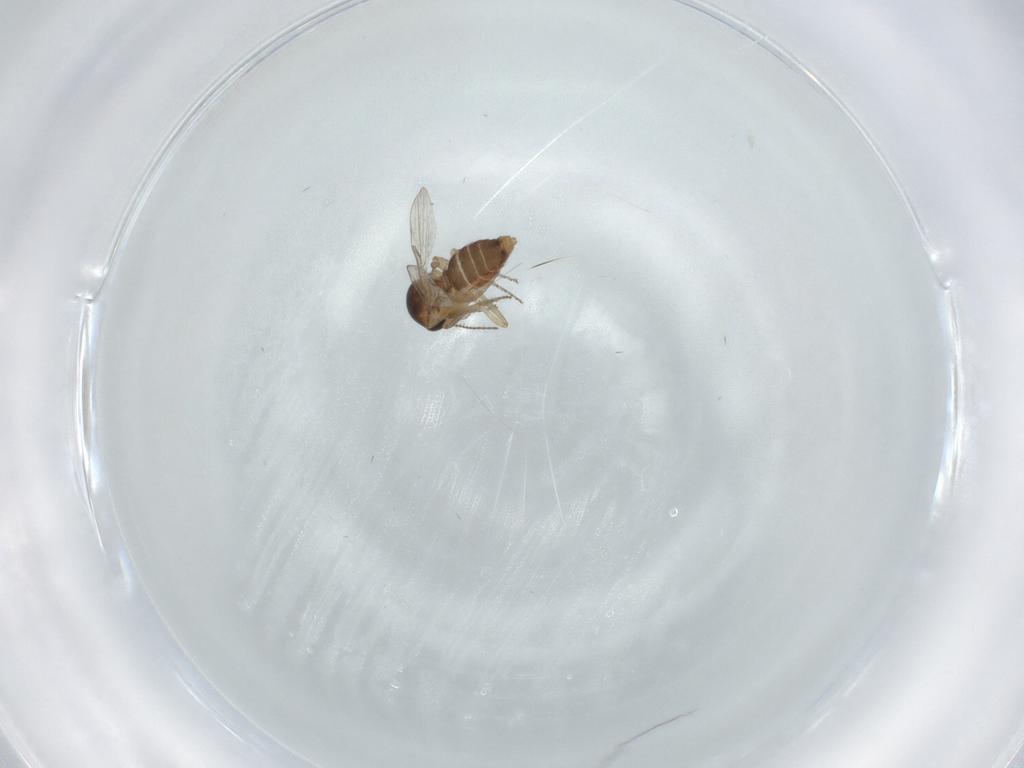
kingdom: Animalia
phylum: Arthropoda
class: Insecta
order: Diptera
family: Ceratopogonidae
